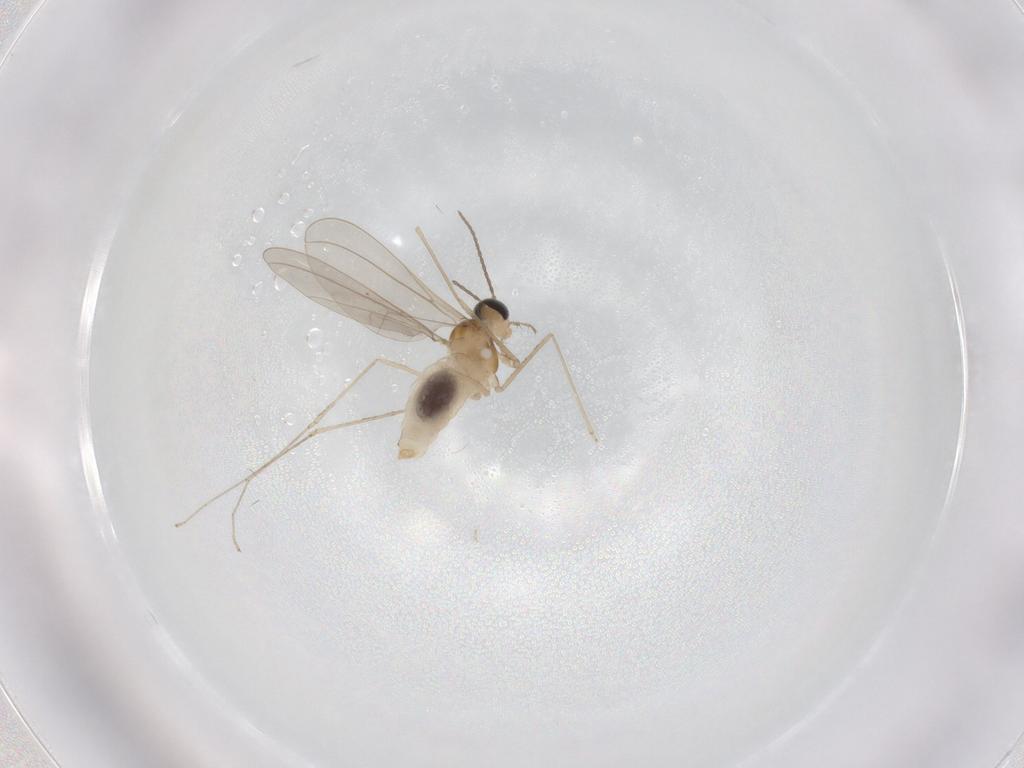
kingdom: Animalia
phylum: Arthropoda
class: Insecta
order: Diptera
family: Cecidomyiidae
